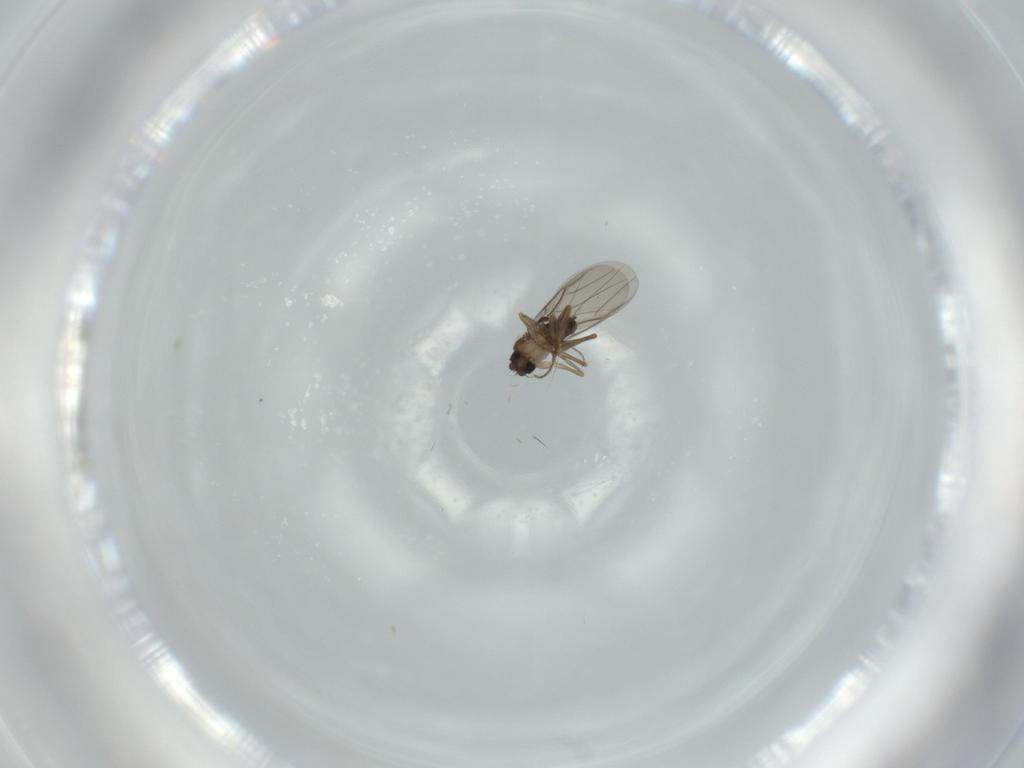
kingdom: Animalia
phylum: Arthropoda
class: Insecta
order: Diptera
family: Phoridae
